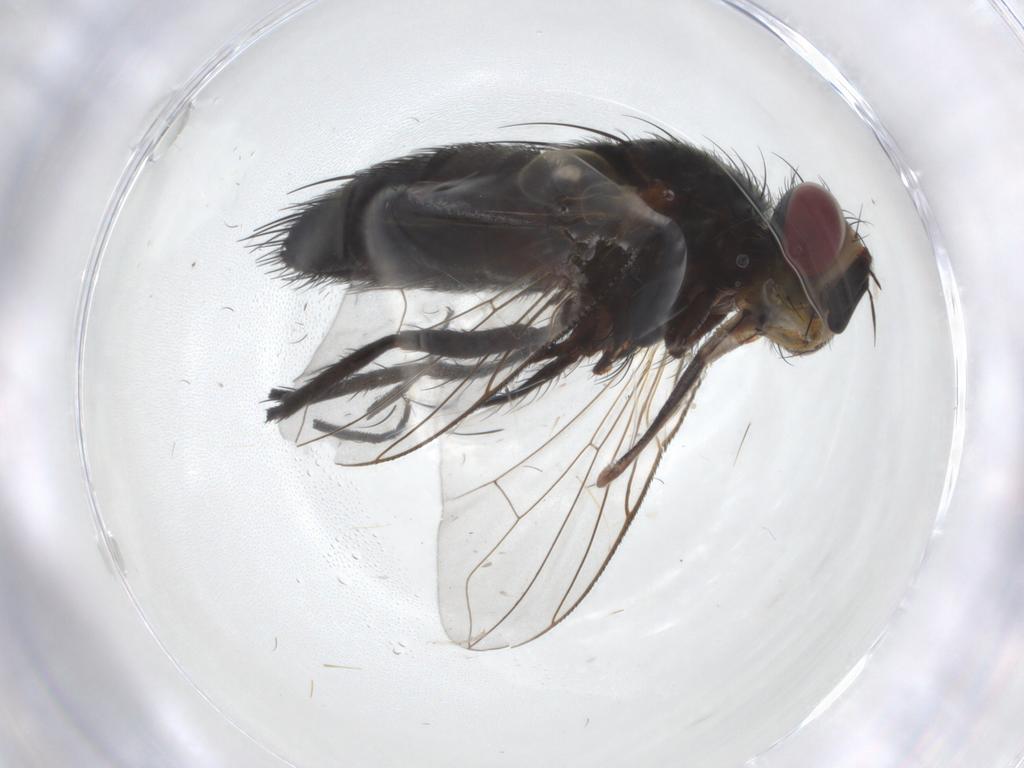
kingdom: Animalia
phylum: Arthropoda
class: Insecta
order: Diptera
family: Tachinidae
